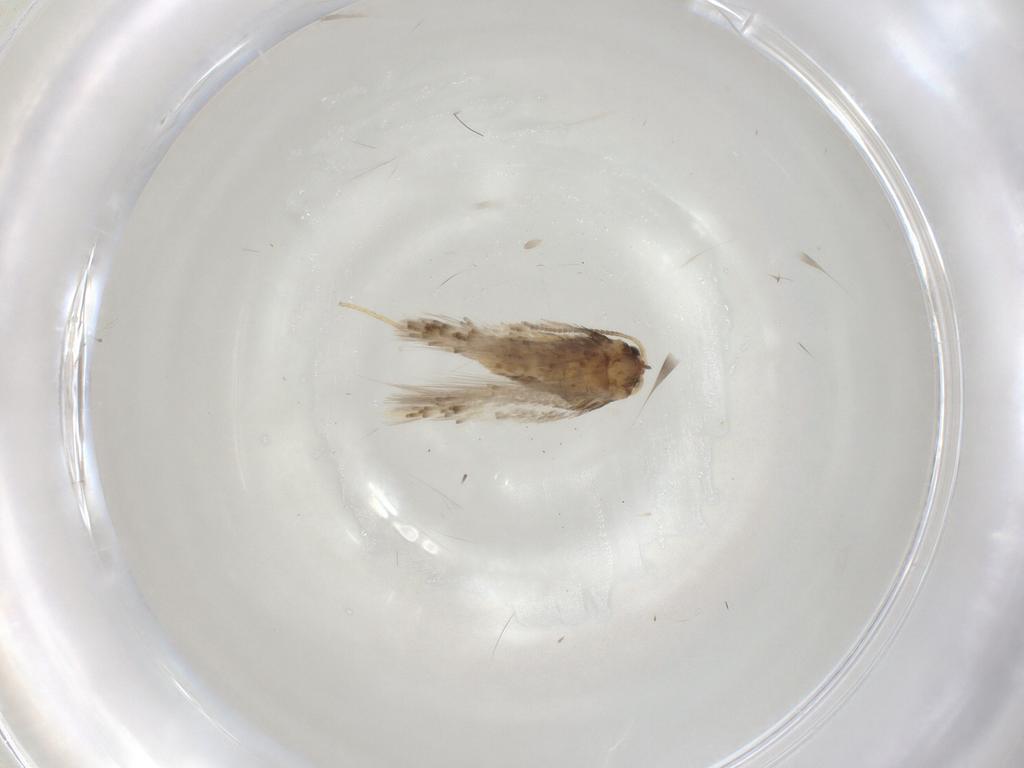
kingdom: Animalia
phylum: Arthropoda
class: Insecta
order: Lepidoptera
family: Nepticulidae
